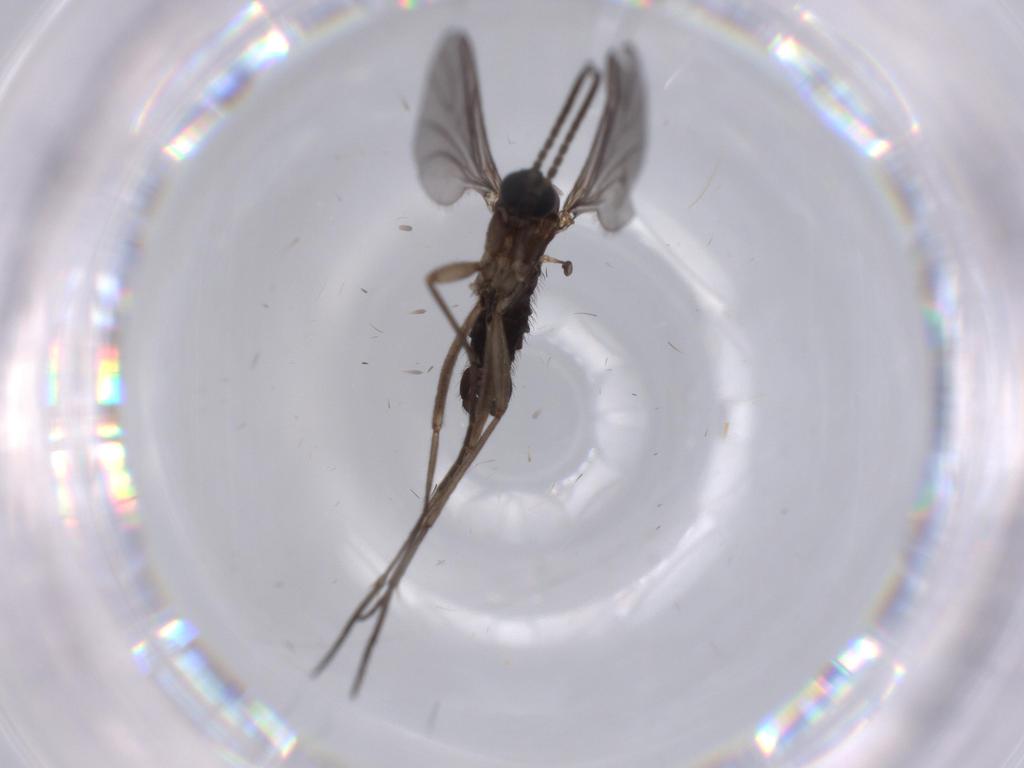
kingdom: Animalia
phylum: Arthropoda
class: Insecta
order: Diptera
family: Sciaridae
